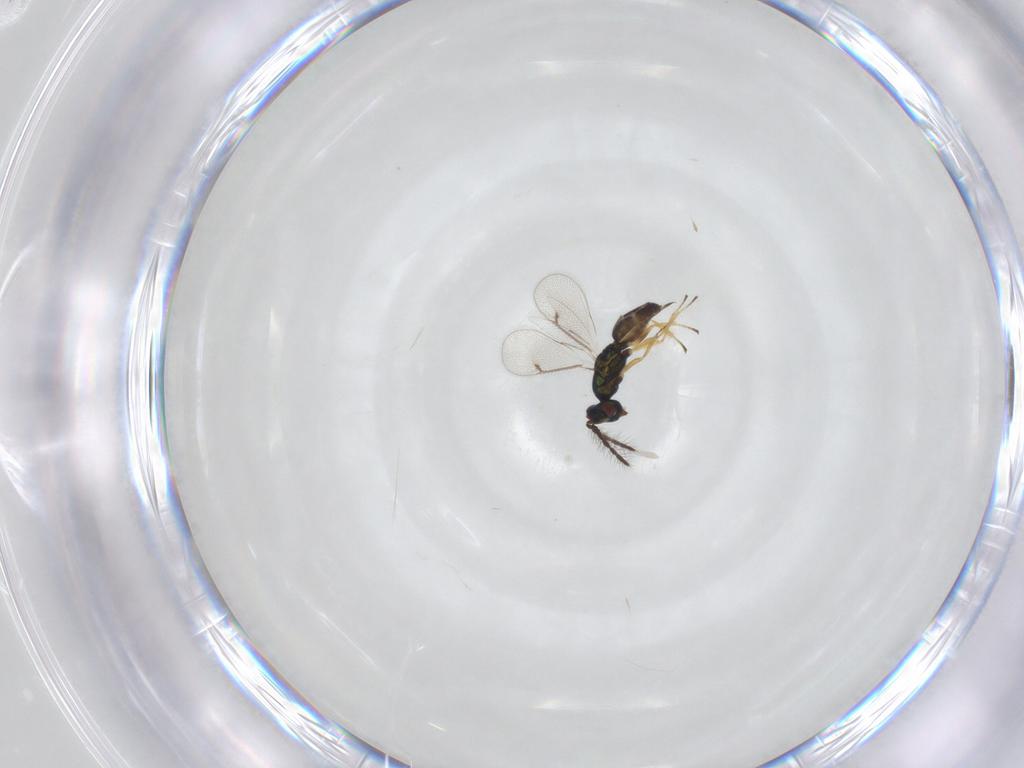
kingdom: Animalia
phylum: Arthropoda
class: Insecta
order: Hymenoptera
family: Eulophidae
